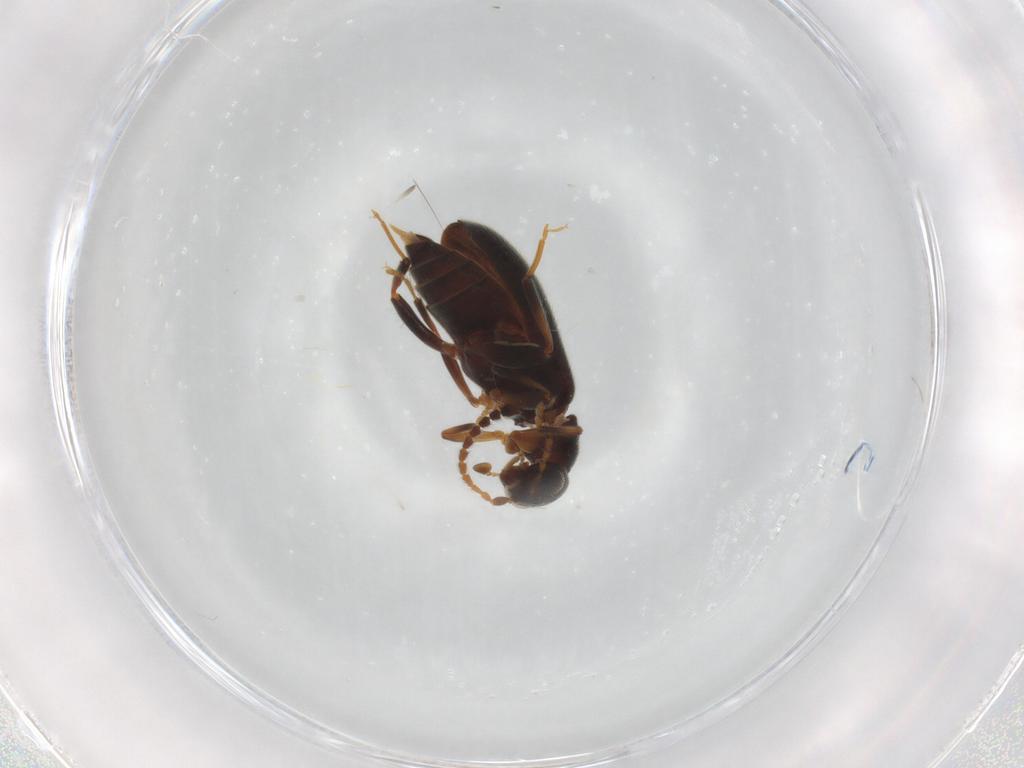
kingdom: Animalia
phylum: Arthropoda
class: Insecta
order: Coleoptera
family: Aderidae
